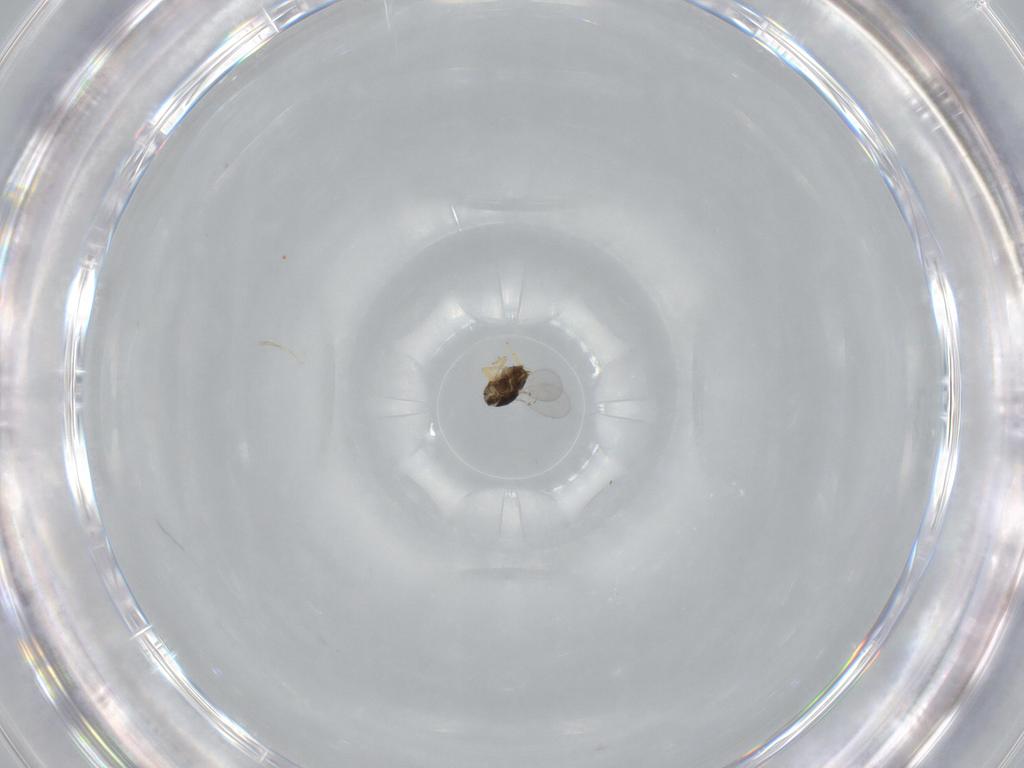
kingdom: Animalia
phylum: Arthropoda
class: Insecta
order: Hymenoptera
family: Encyrtidae
